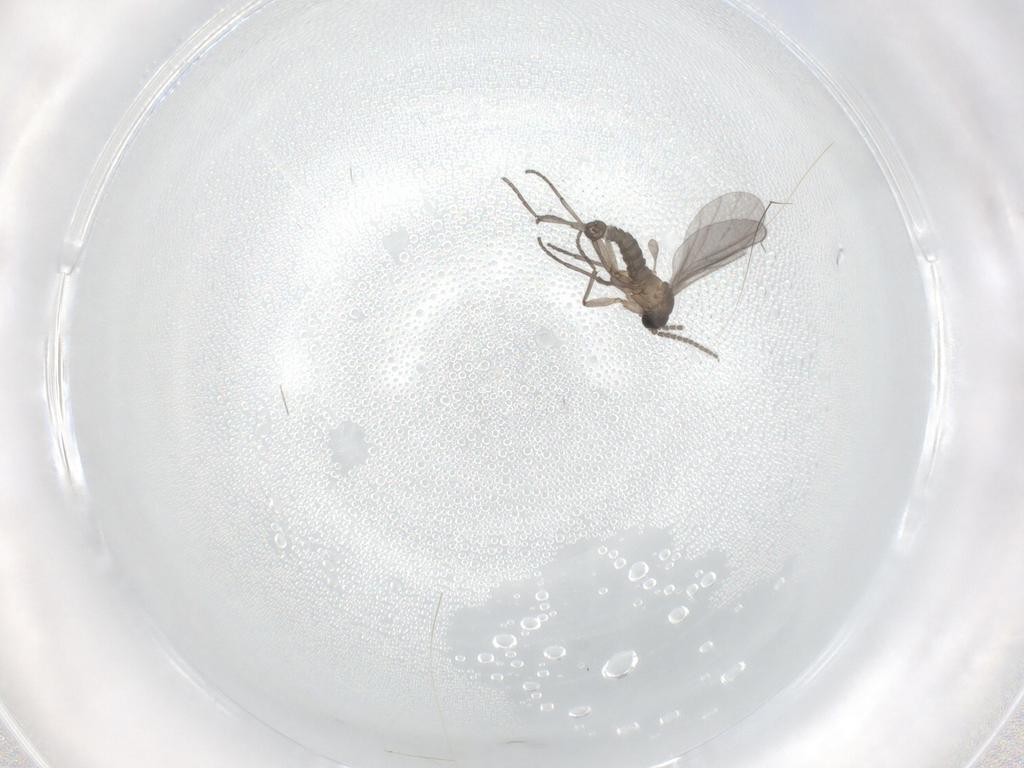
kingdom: Animalia
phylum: Arthropoda
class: Insecta
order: Diptera
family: Sciaridae
